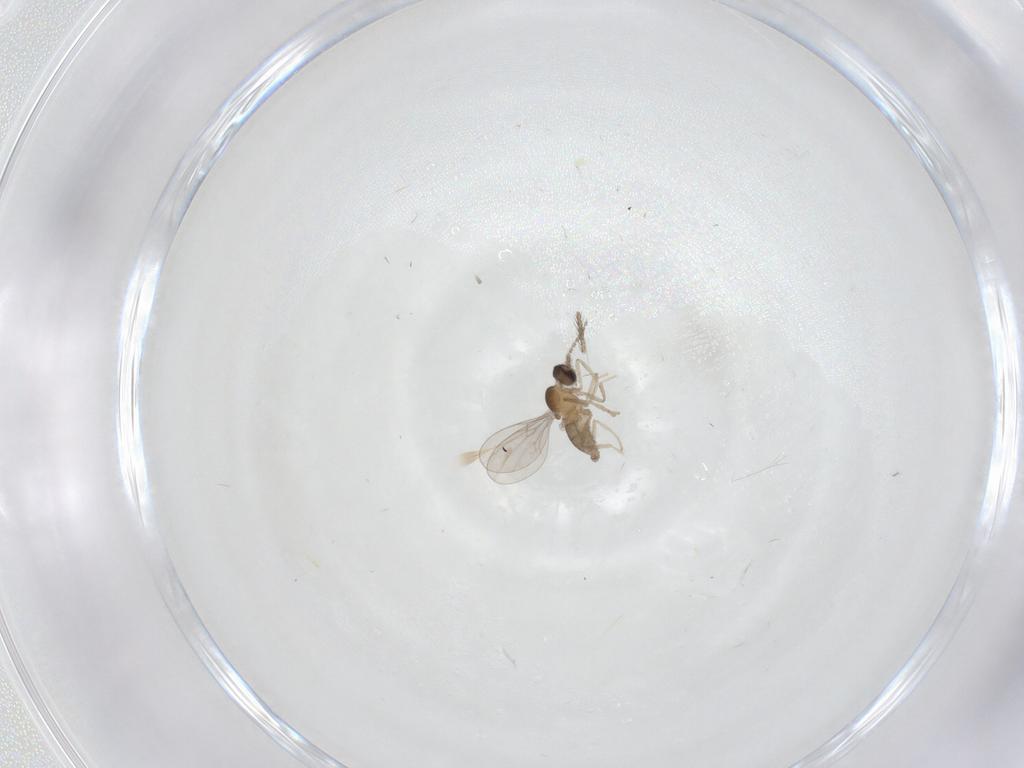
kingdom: Animalia
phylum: Arthropoda
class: Insecta
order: Diptera
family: Cecidomyiidae
